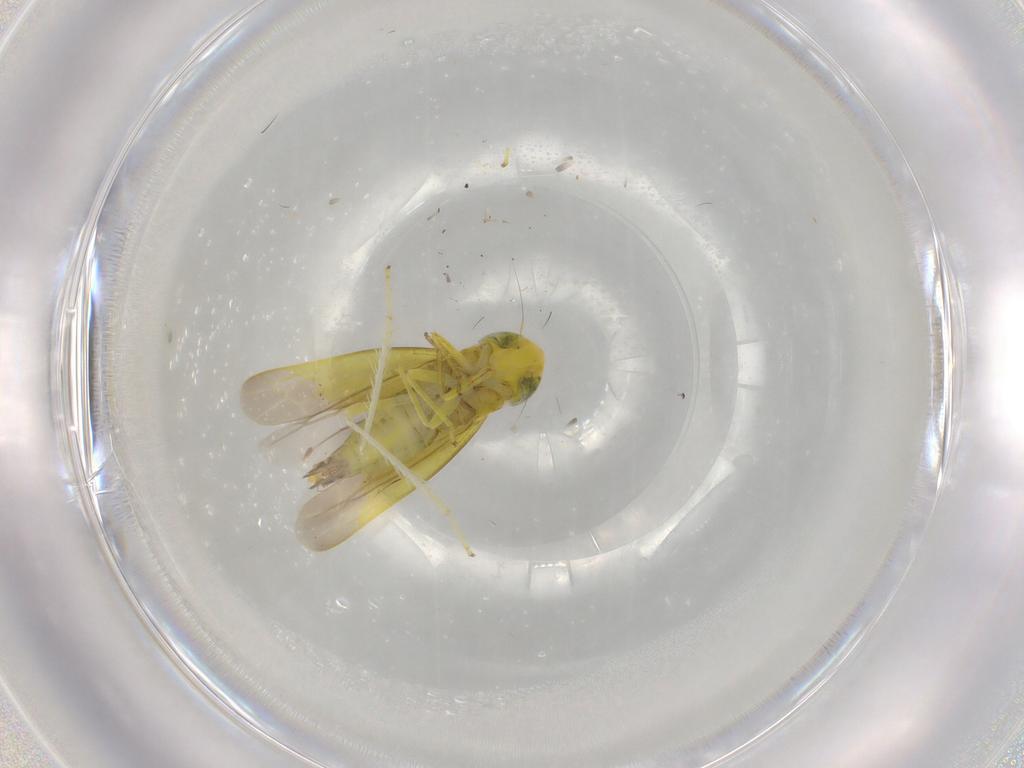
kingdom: Animalia
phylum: Arthropoda
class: Insecta
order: Hemiptera
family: Cicadellidae
